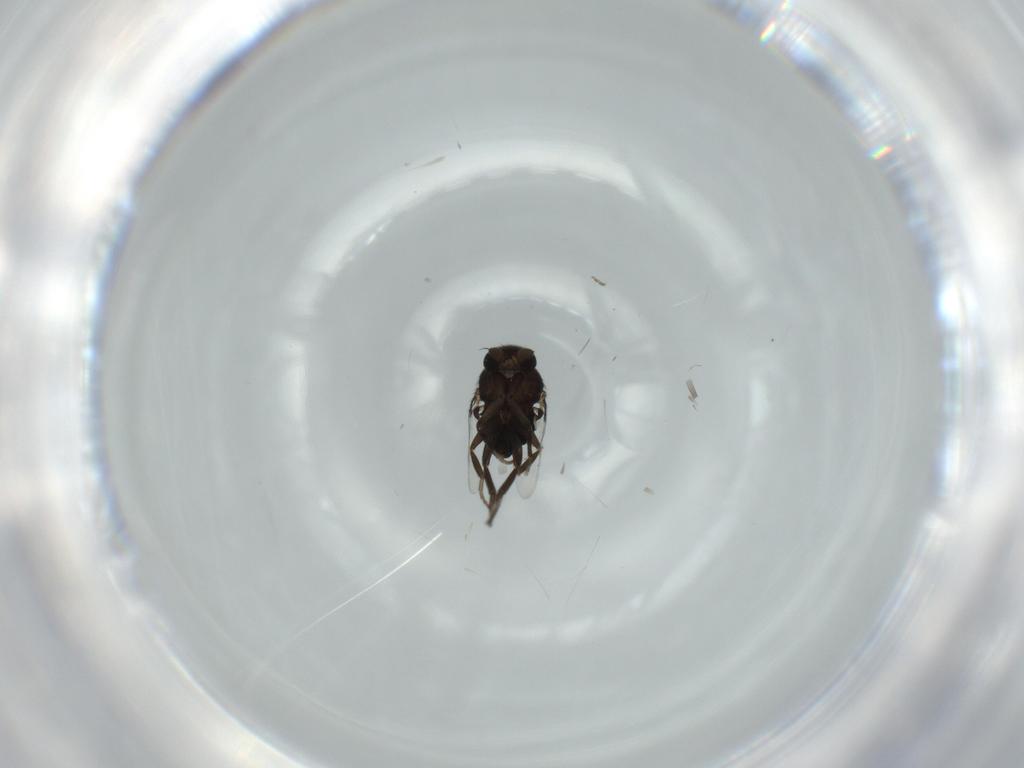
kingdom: Animalia
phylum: Arthropoda
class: Insecta
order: Diptera
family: Phoridae
